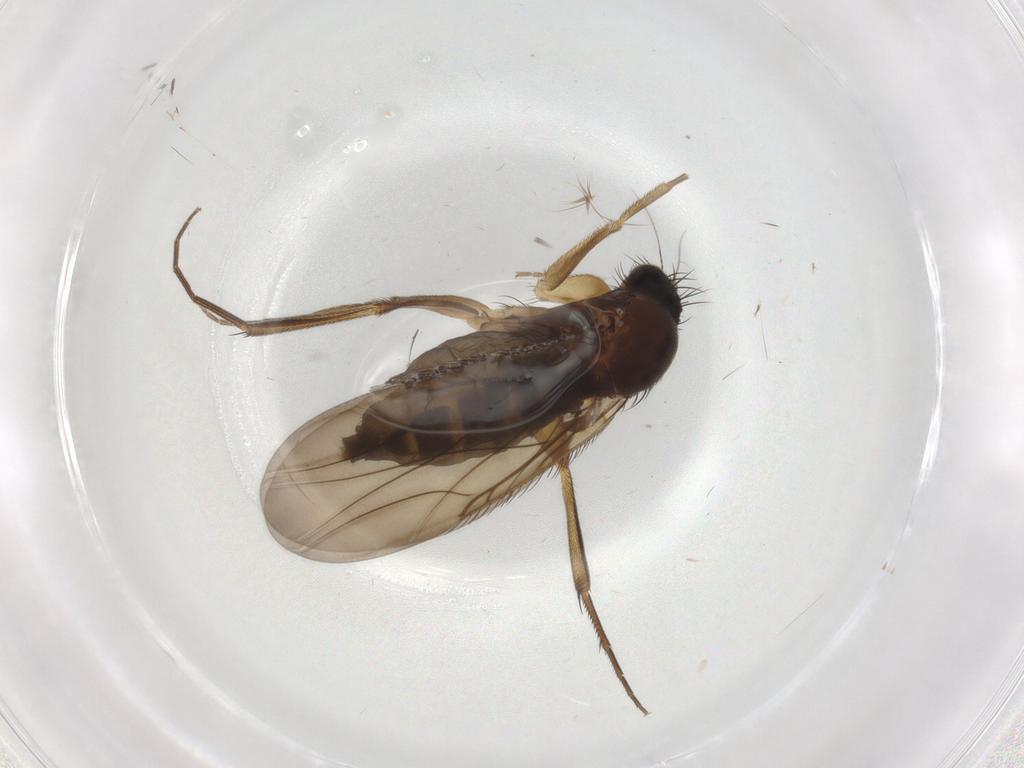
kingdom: Animalia
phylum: Arthropoda
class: Insecta
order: Diptera
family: Phoridae
